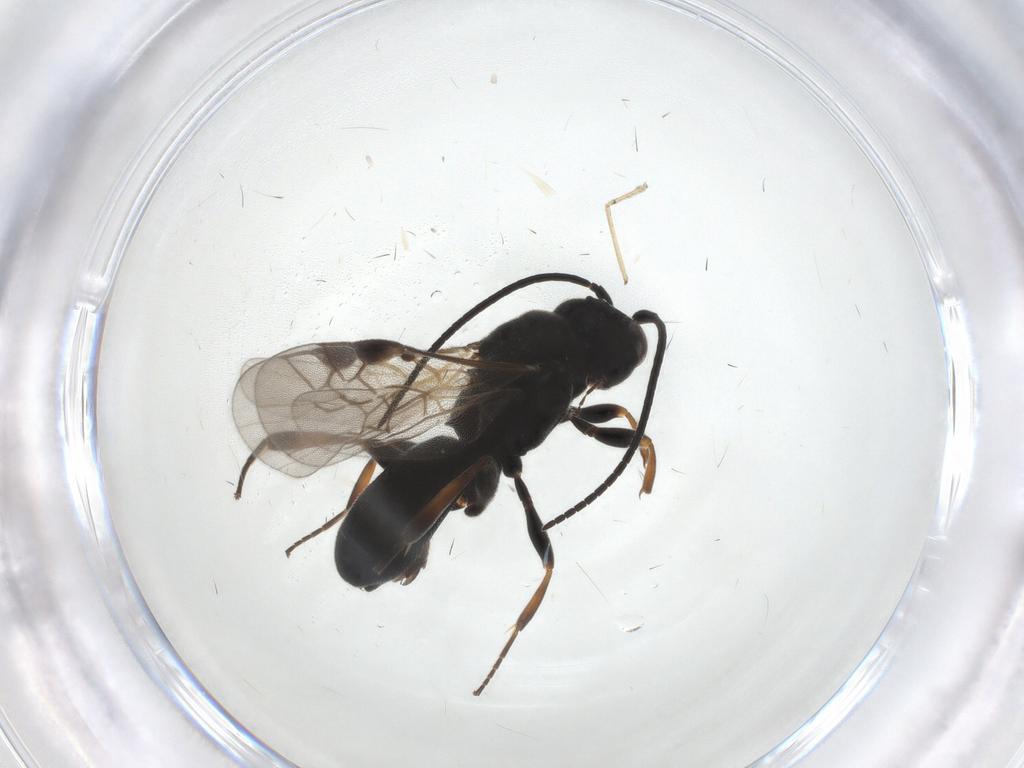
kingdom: Animalia
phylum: Arthropoda
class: Insecta
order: Hymenoptera
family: Braconidae
